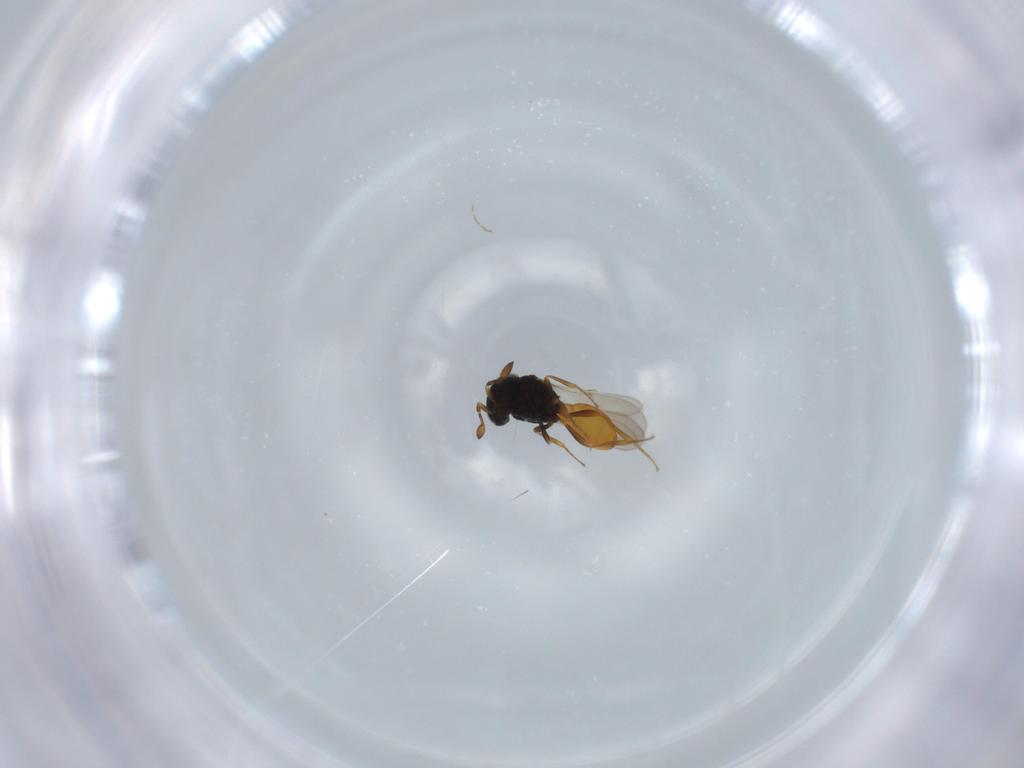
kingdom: Animalia
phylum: Arthropoda
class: Insecta
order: Hymenoptera
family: Scelionidae
